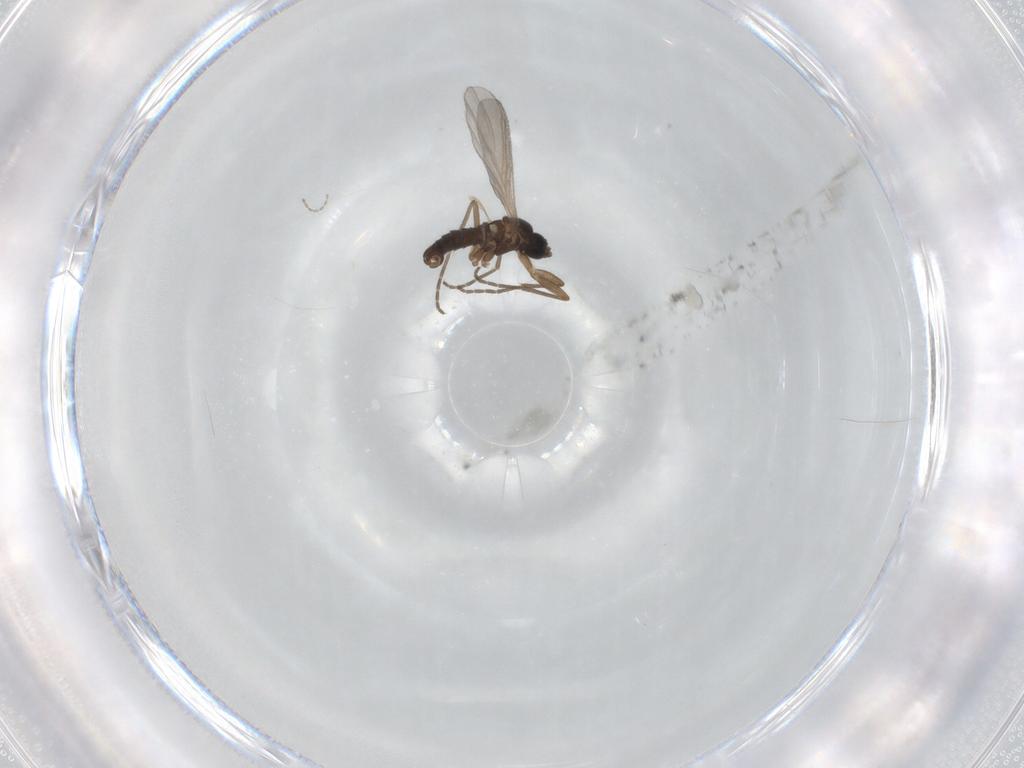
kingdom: Animalia
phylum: Arthropoda
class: Insecta
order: Diptera
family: Sciaridae
